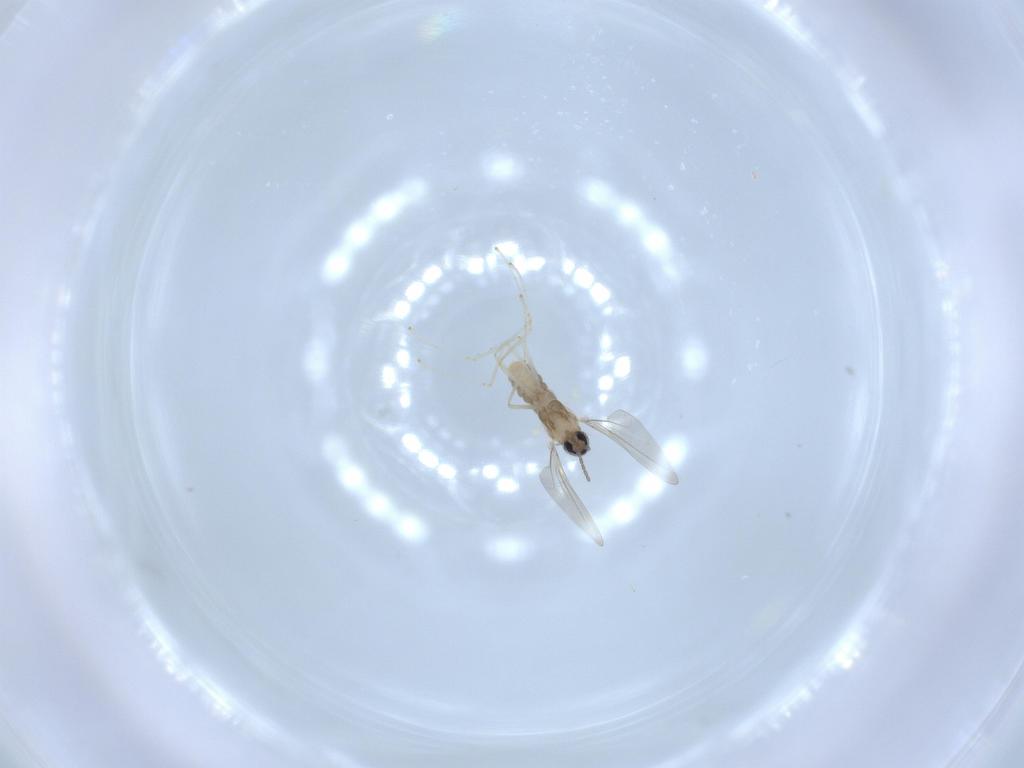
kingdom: Animalia
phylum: Arthropoda
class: Insecta
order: Diptera
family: Cecidomyiidae
